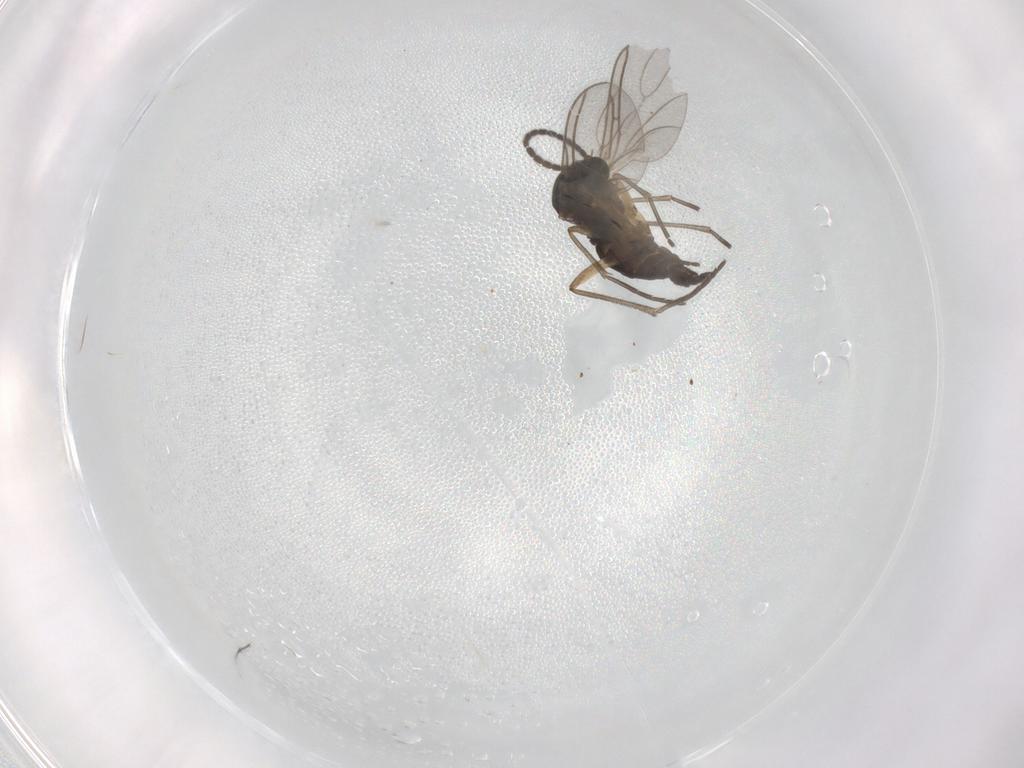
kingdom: Animalia
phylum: Arthropoda
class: Insecta
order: Diptera
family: Sciaridae
